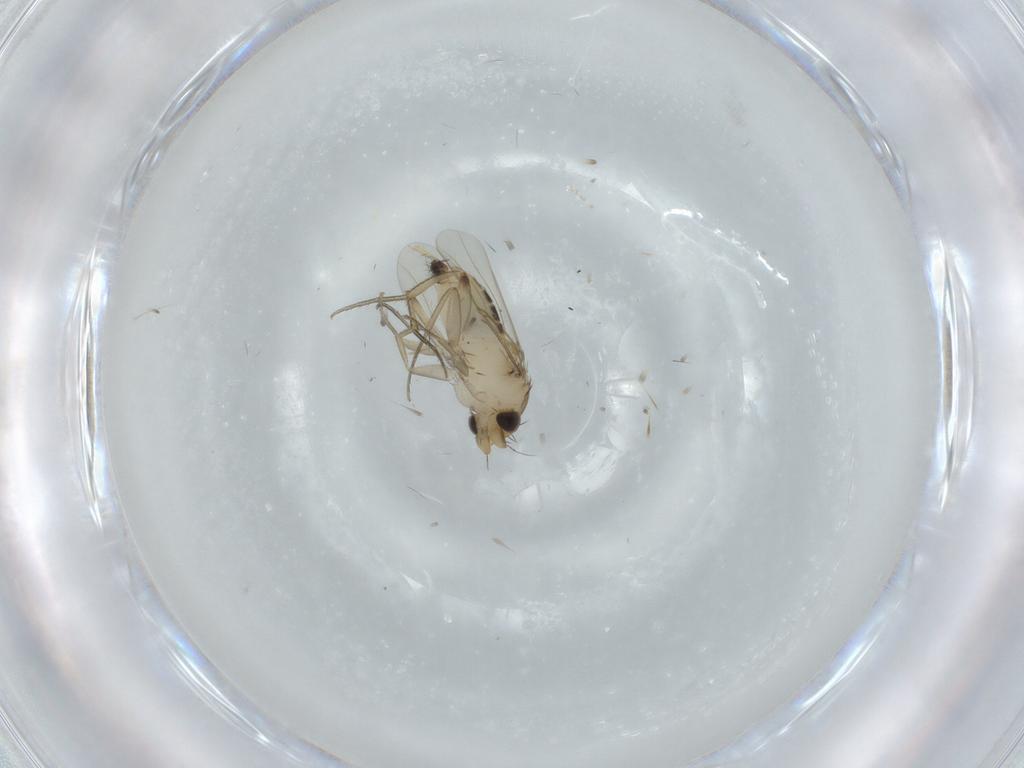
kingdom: Animalia
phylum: Arthropoda
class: Insecta
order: Diptera
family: Phoridae
